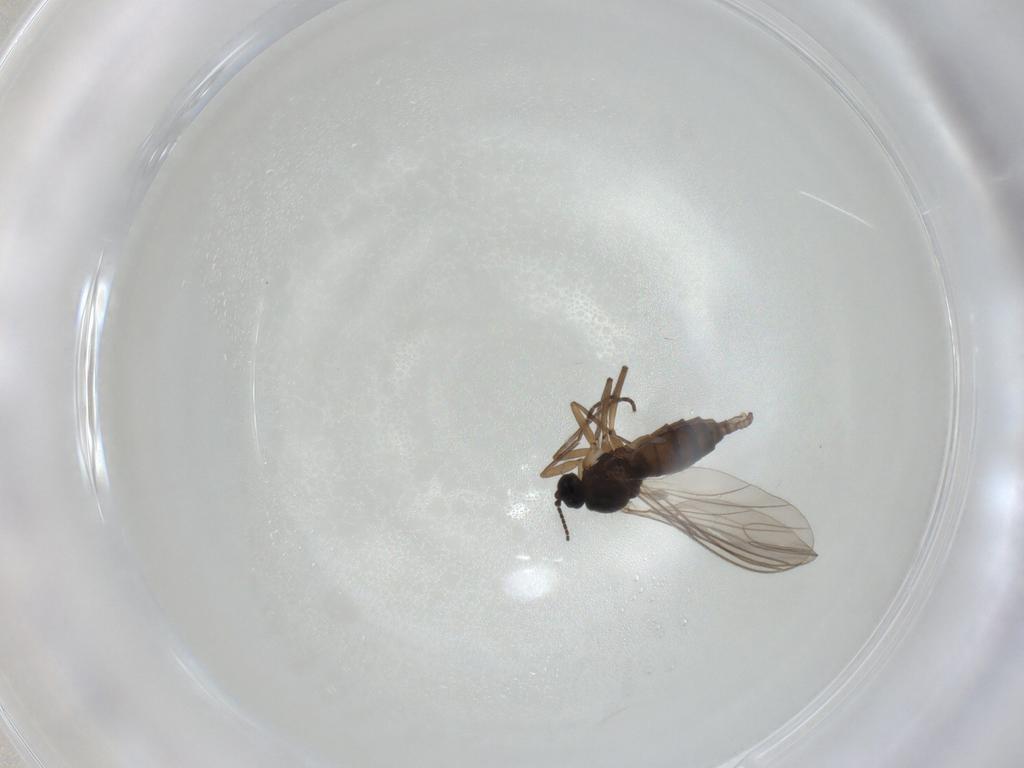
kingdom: Animalia
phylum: Arthropoda
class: Insecta
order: Diptera
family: Sciaridae
